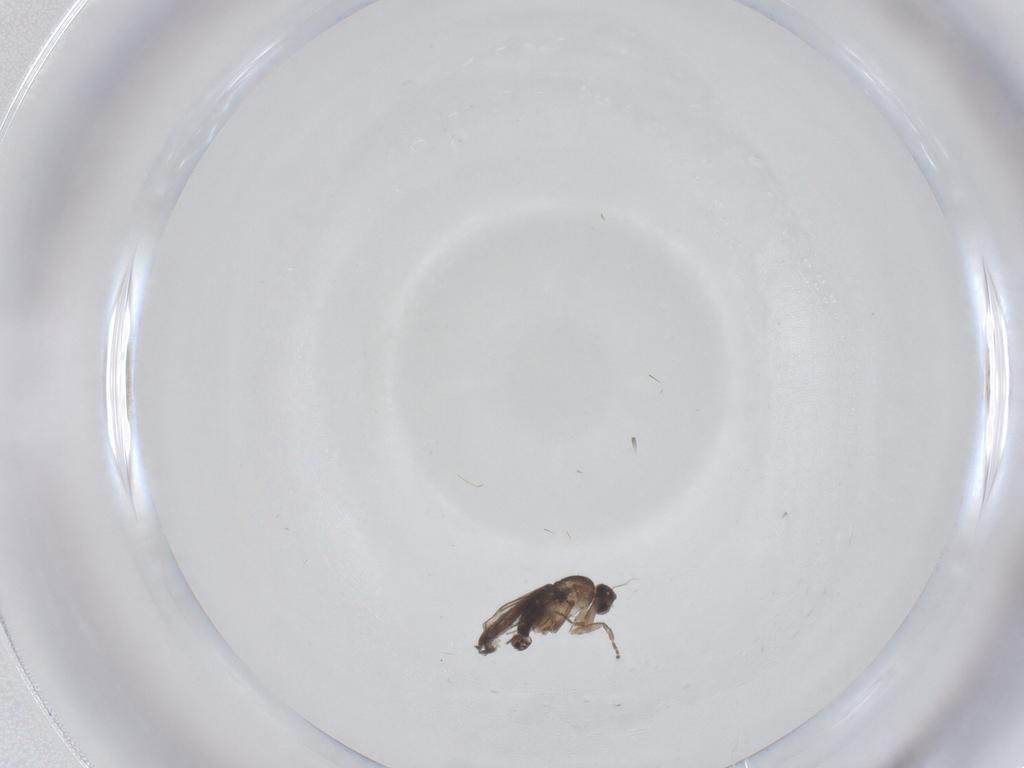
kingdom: Animalia
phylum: Arthropoda
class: Insecta
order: Diptera
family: Sciaridae
